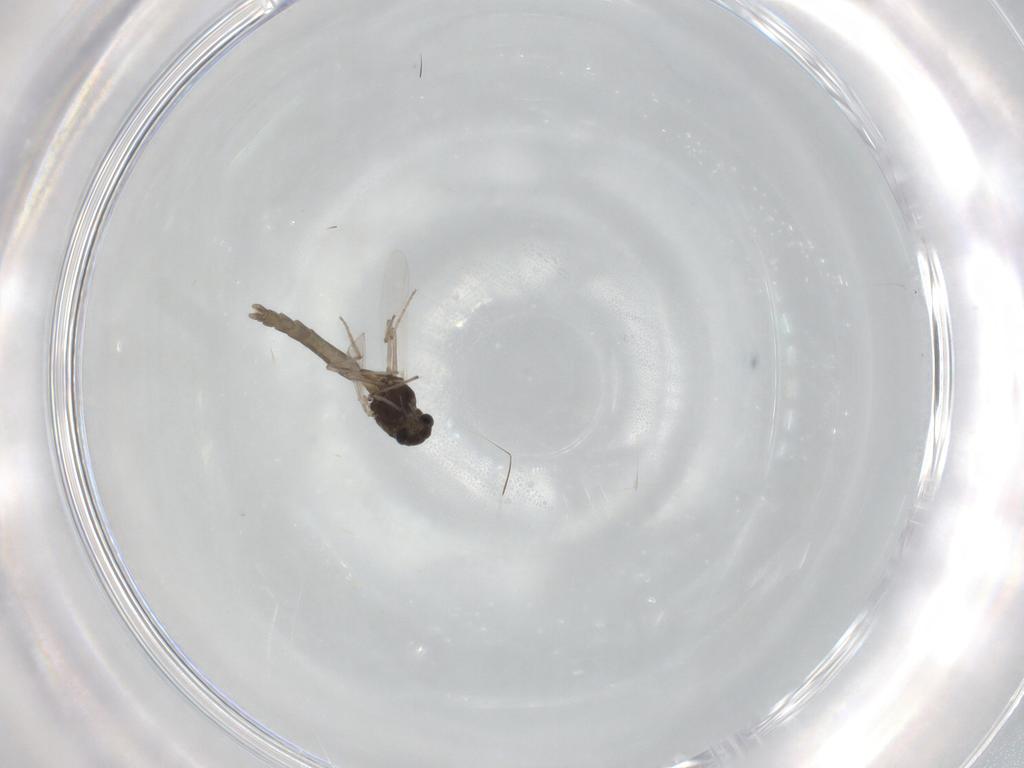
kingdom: Animalia
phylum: Arthropoda
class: Insecta
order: Diptera
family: Chironomidae
